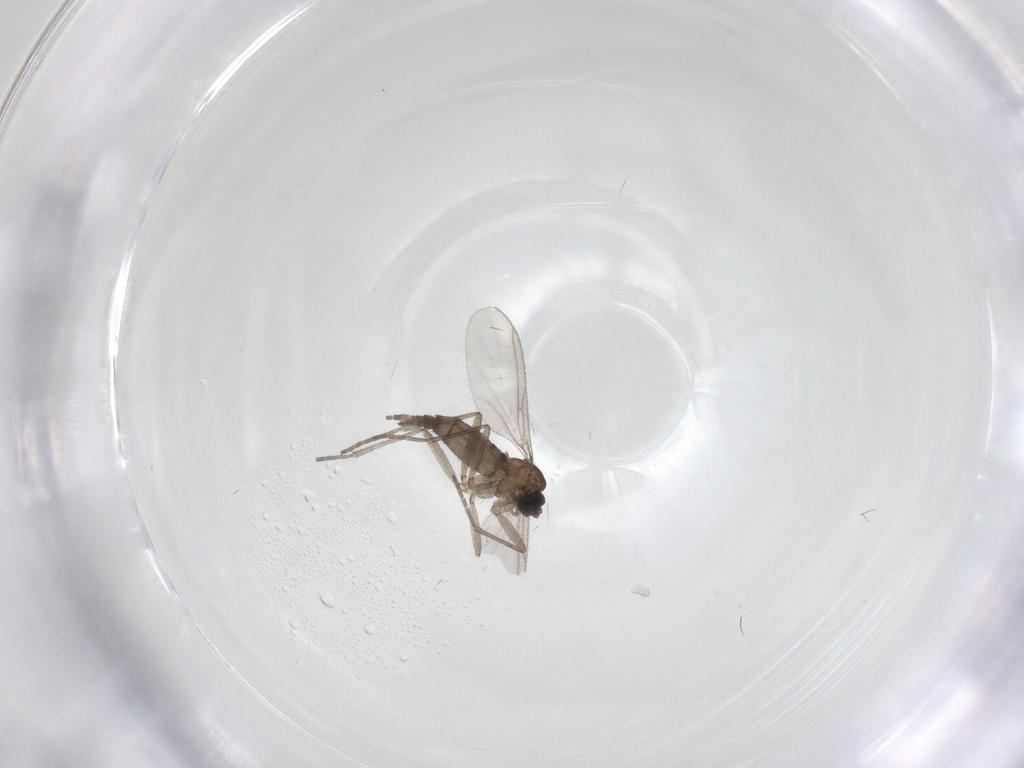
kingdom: Animalia
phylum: Arthropoda
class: Insecta
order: Diptera
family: Sciaridae
